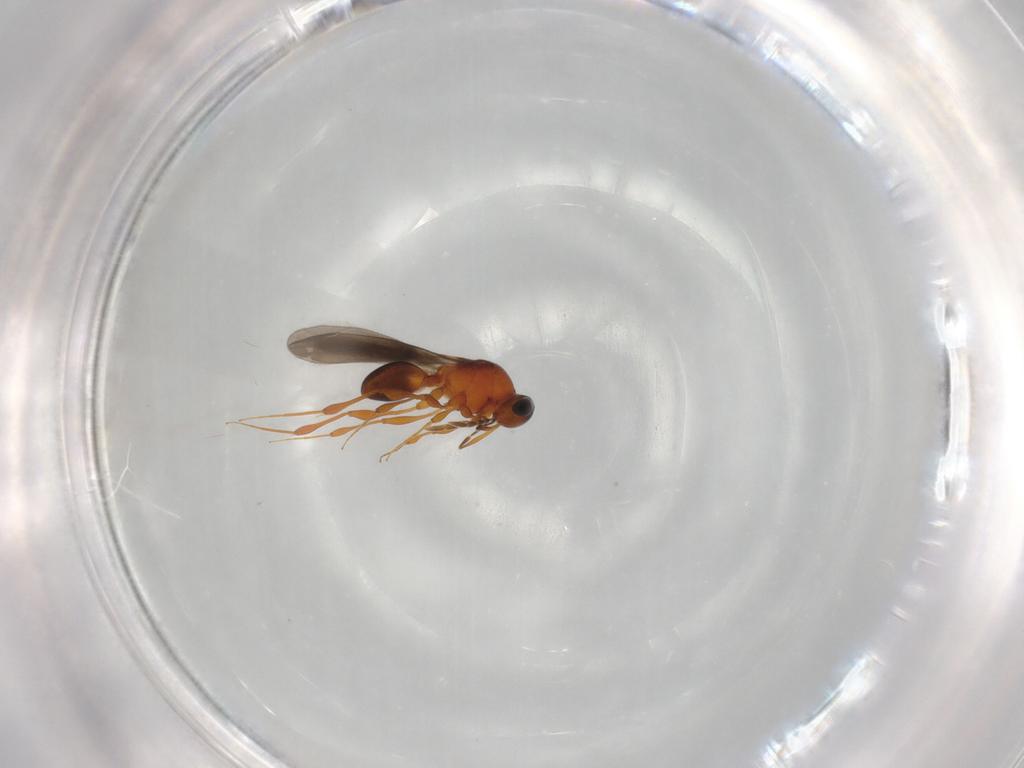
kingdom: Animalia
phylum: Arthropoda
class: Insecta
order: Hymenoptera
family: Platygastridae
